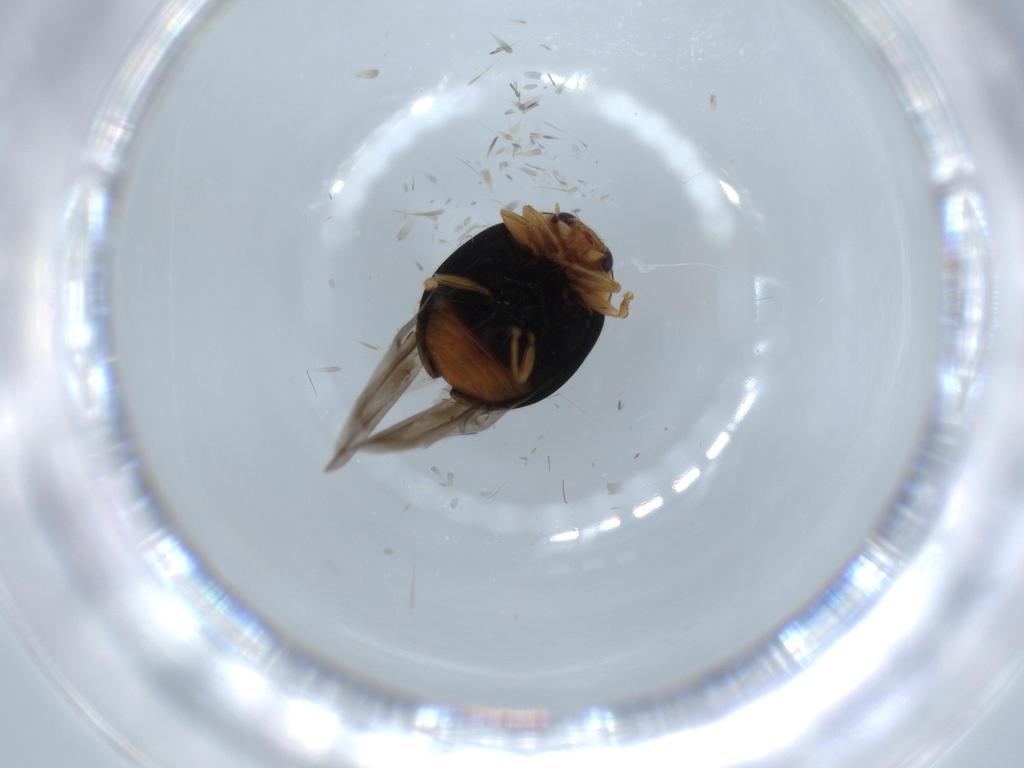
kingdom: Animalia
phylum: Arthropoda
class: Insecta
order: Coleoptera
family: Coccinellidae
